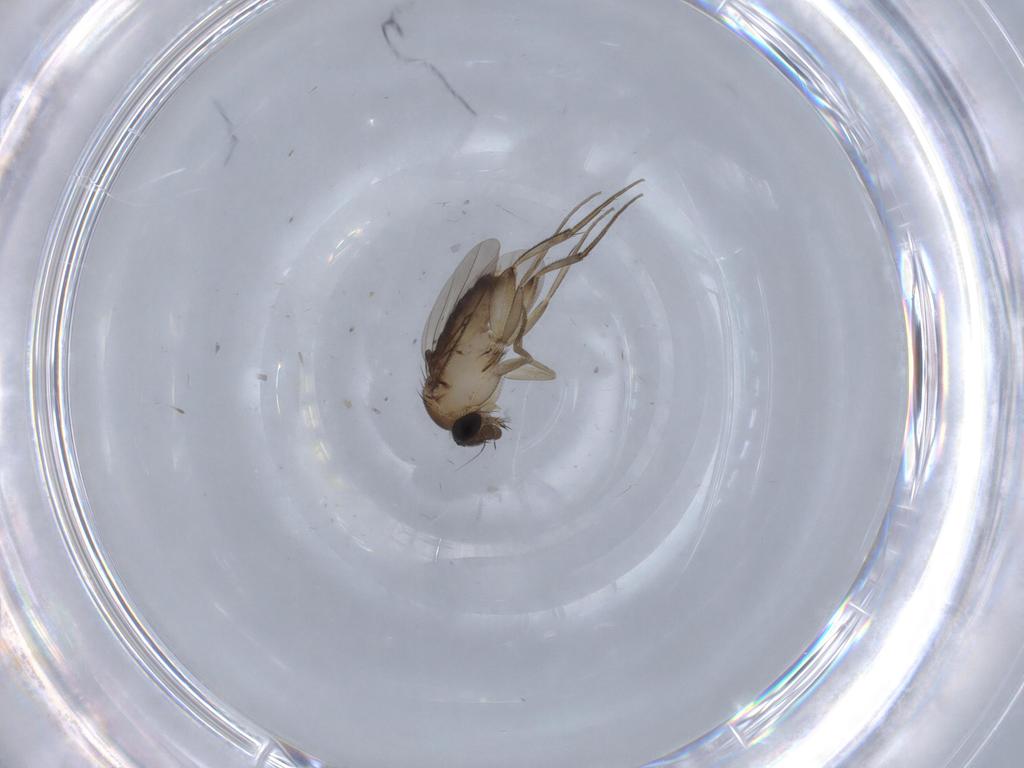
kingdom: Animalia
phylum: Arthropoda
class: Insecta
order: Diptera
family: Phoridae
